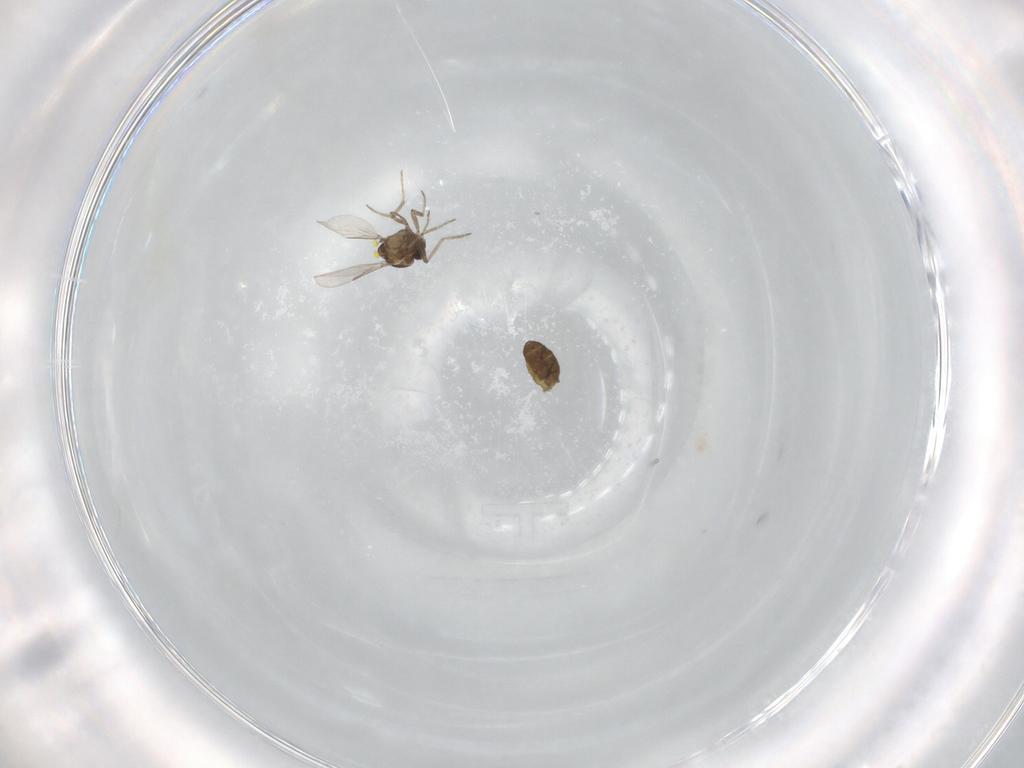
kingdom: Animalia
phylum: Arthropoda
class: Insecta
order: Diptera
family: Ceratopogonidae
